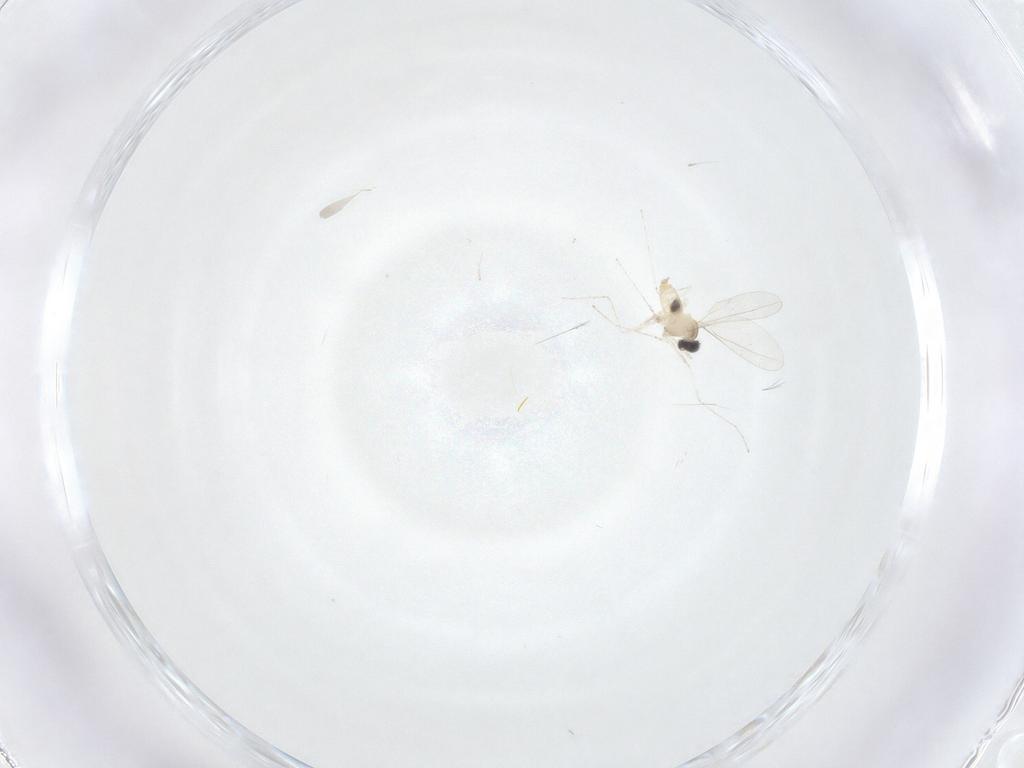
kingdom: Animalia
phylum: Arthropoda
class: Insecta
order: Diptera
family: Cecidomyiidae
